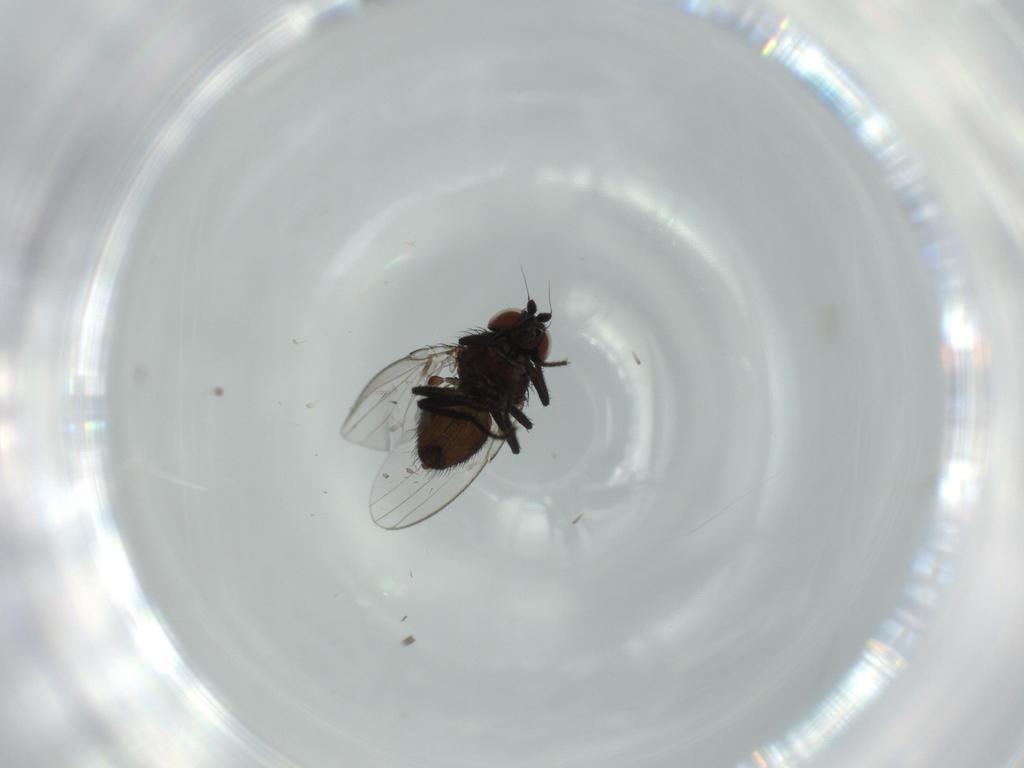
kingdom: Animalia
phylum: Arthropoda
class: Insecta
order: Diptera
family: Milichiidae
